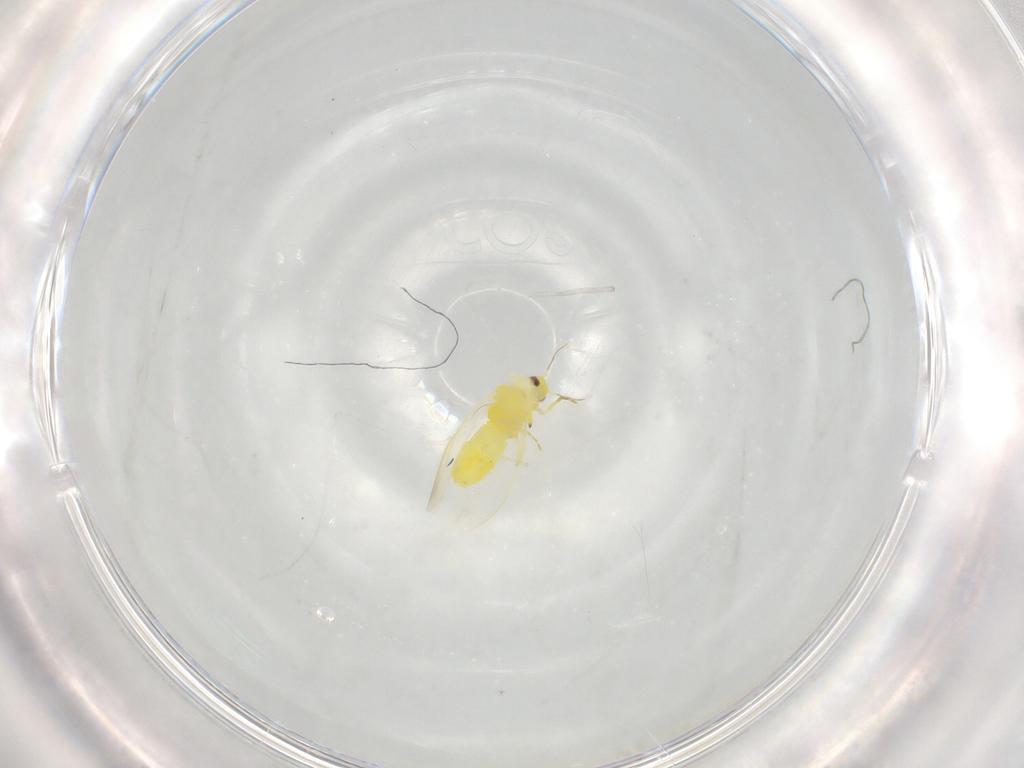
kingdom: Animalia
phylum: Arthropoda
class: Insecta
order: Hemiptera
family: Aleyrodidae
